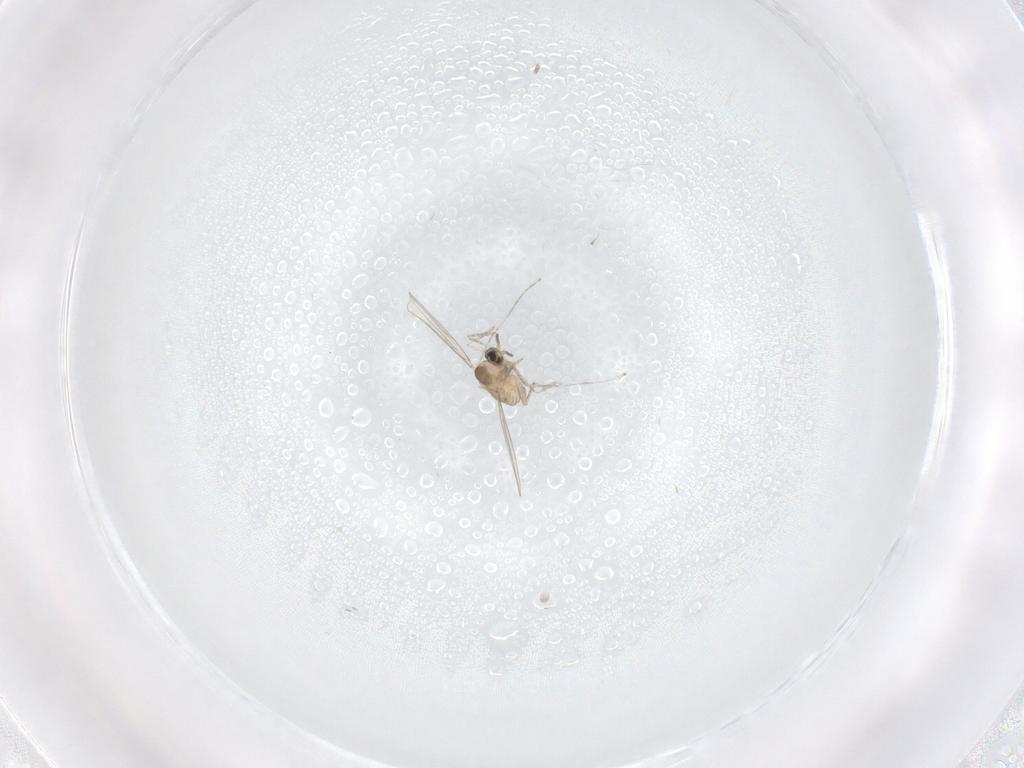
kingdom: Animalia
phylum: Arthropoda
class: Insecta
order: Diptera
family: Cecidomyiidae
